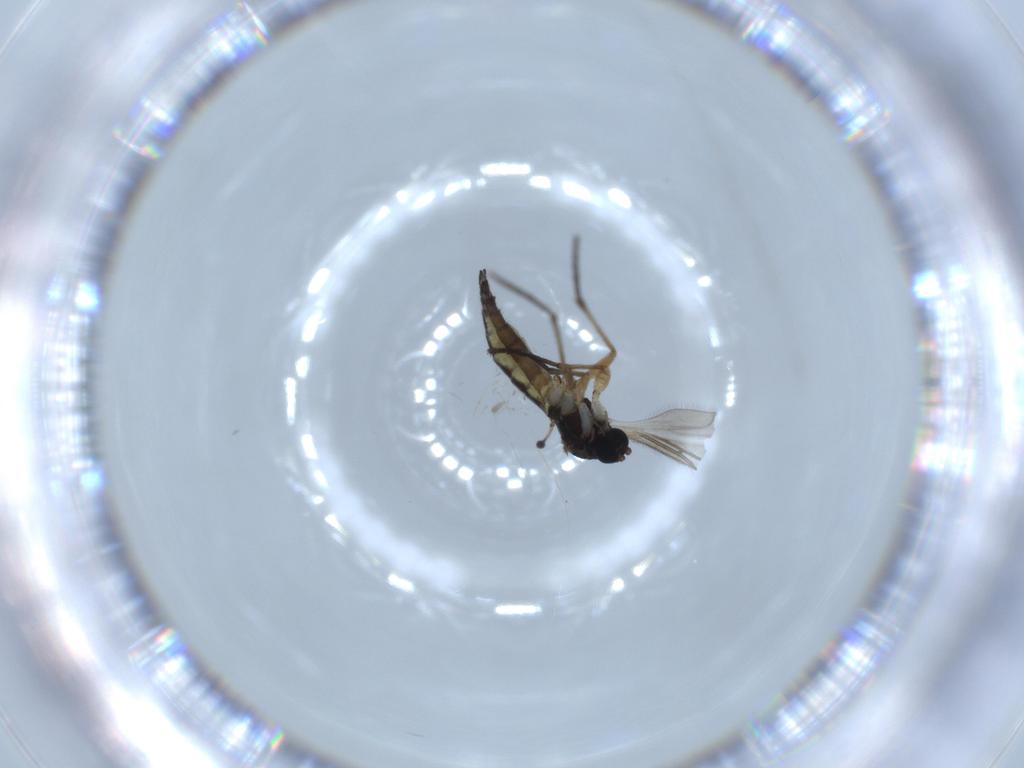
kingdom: Animalia
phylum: Arthropoda
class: Insecta
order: Diptera
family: Sciaridae
